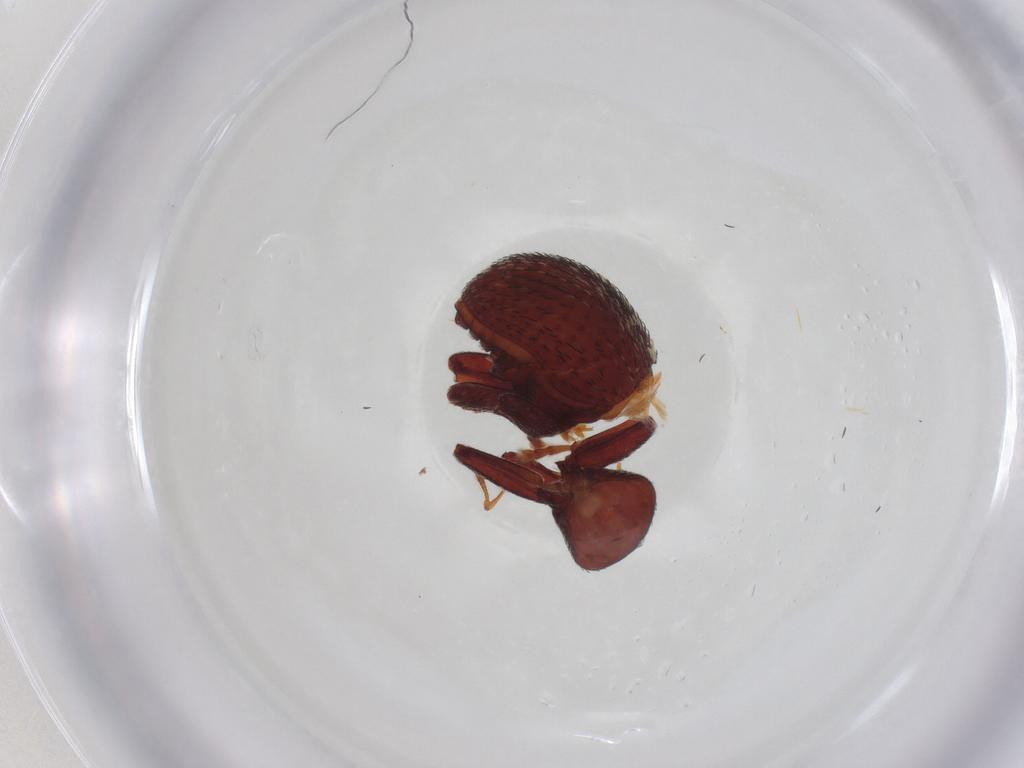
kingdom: Animalia
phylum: Arthropoda
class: Insecta
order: Coleoptera
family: Curculionidae
